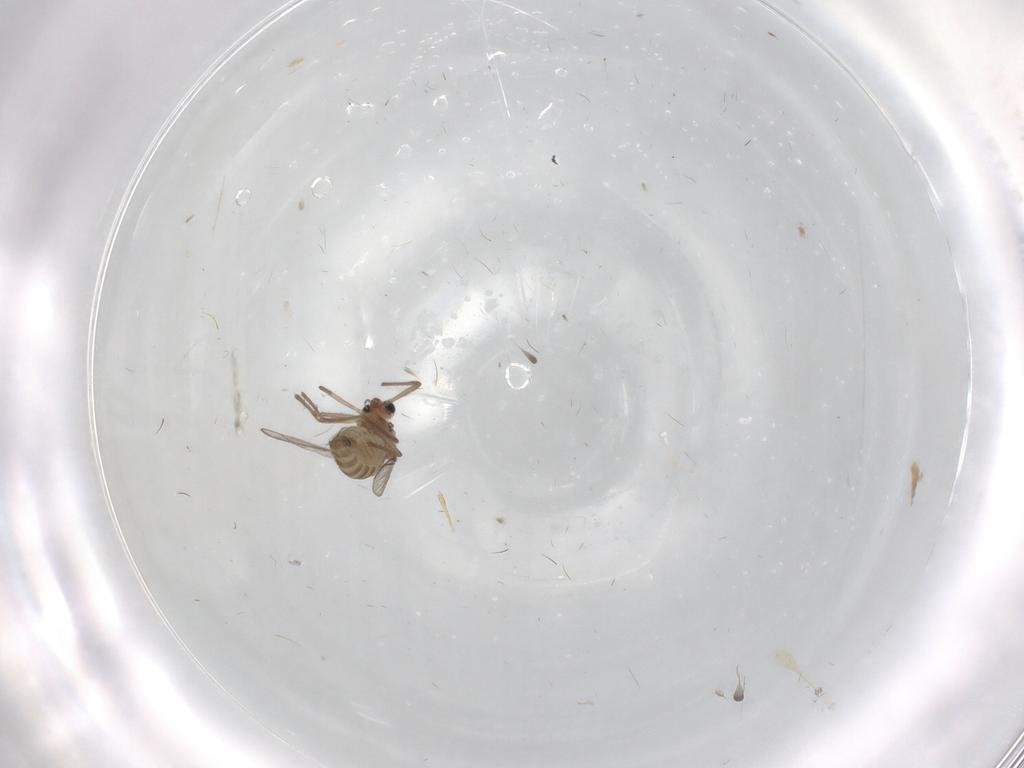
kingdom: Animalia
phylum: Arthropoda
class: Insecta
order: Diptera
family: Chironomidae
